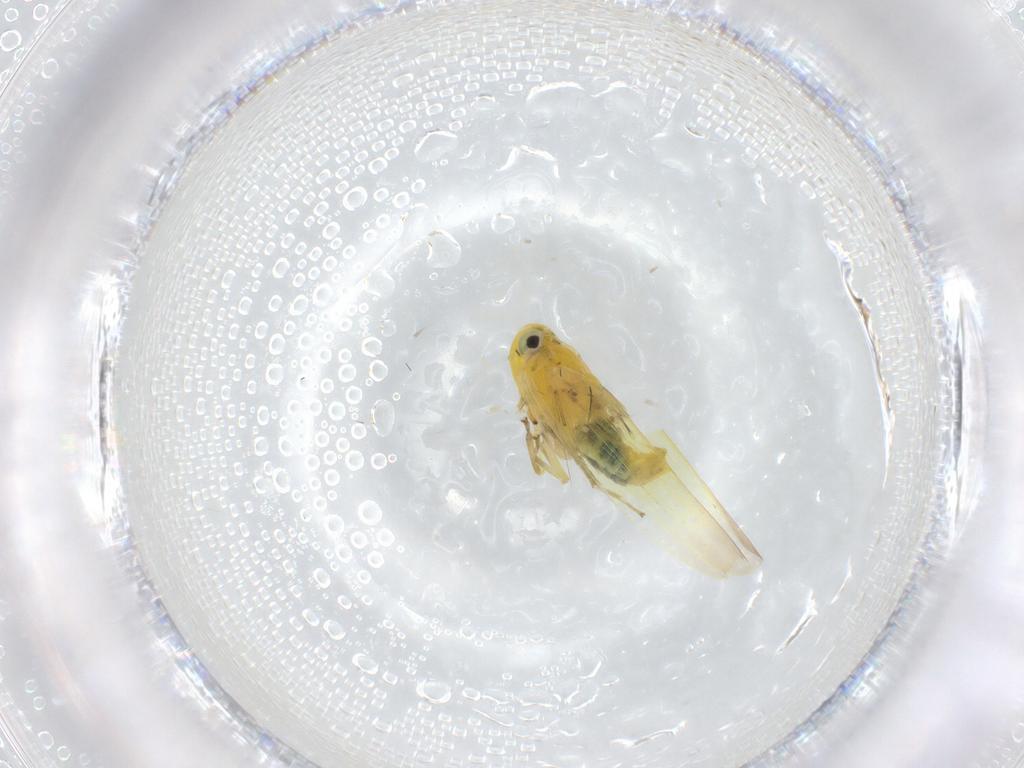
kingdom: Animalia
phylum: Arthropoda
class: Insecta
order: Hemiptera
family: Cicadellidae
